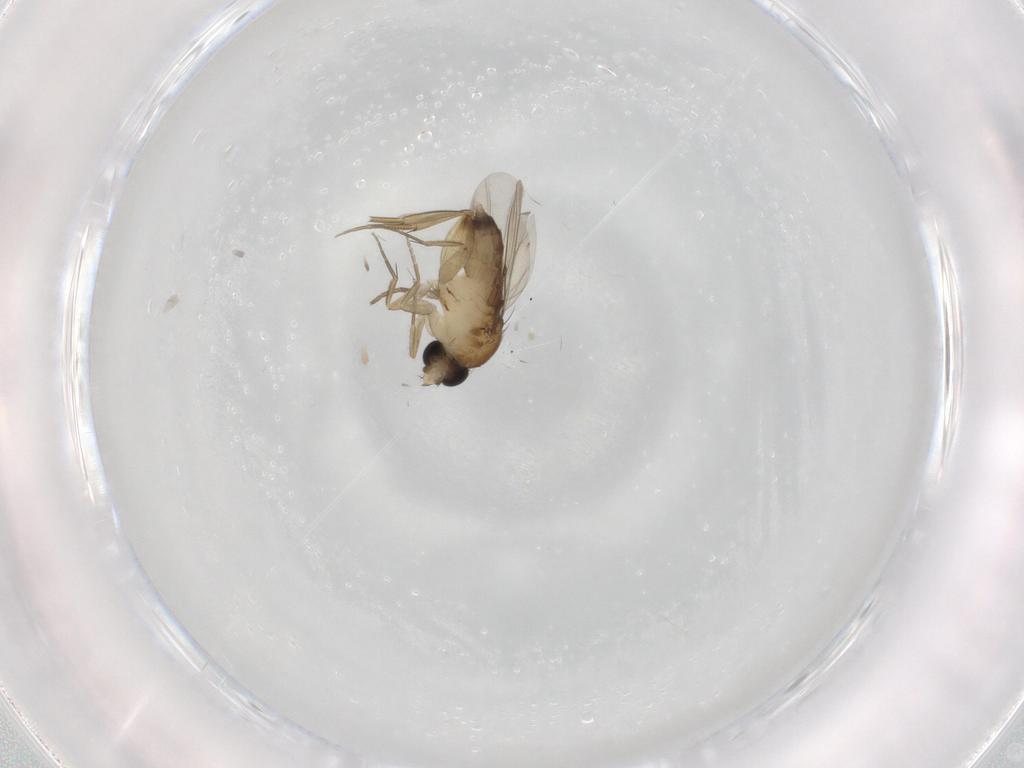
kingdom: Animalia
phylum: Arthropoda
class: Insecta
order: Diptera
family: Phoridae
